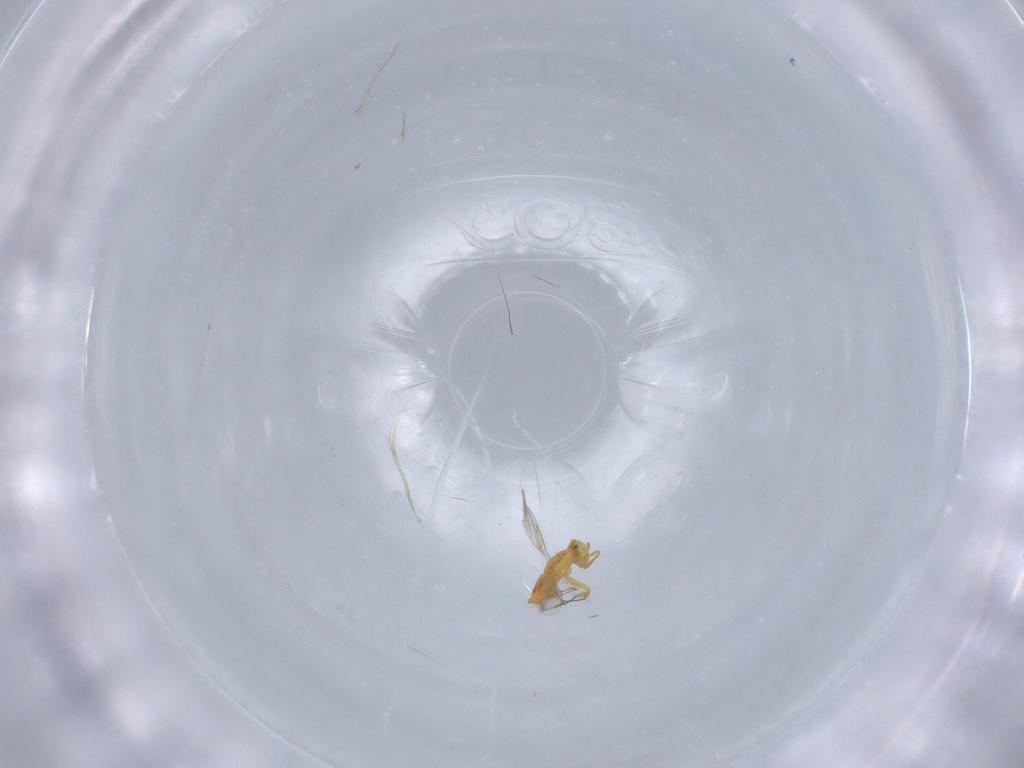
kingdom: Animalia
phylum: Arthropoda
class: Insecta
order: Hymenoptera
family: Aphelinidae
